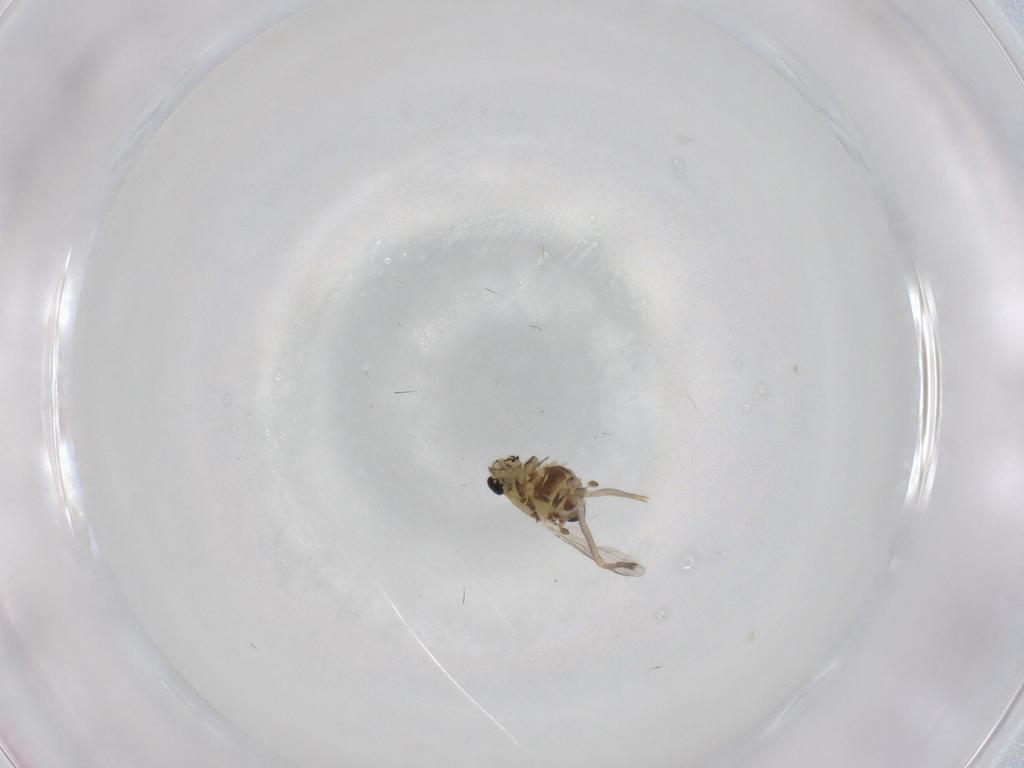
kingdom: Animalia
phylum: Arthropoda
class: Insecta
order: Diptera
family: Chironomidae
